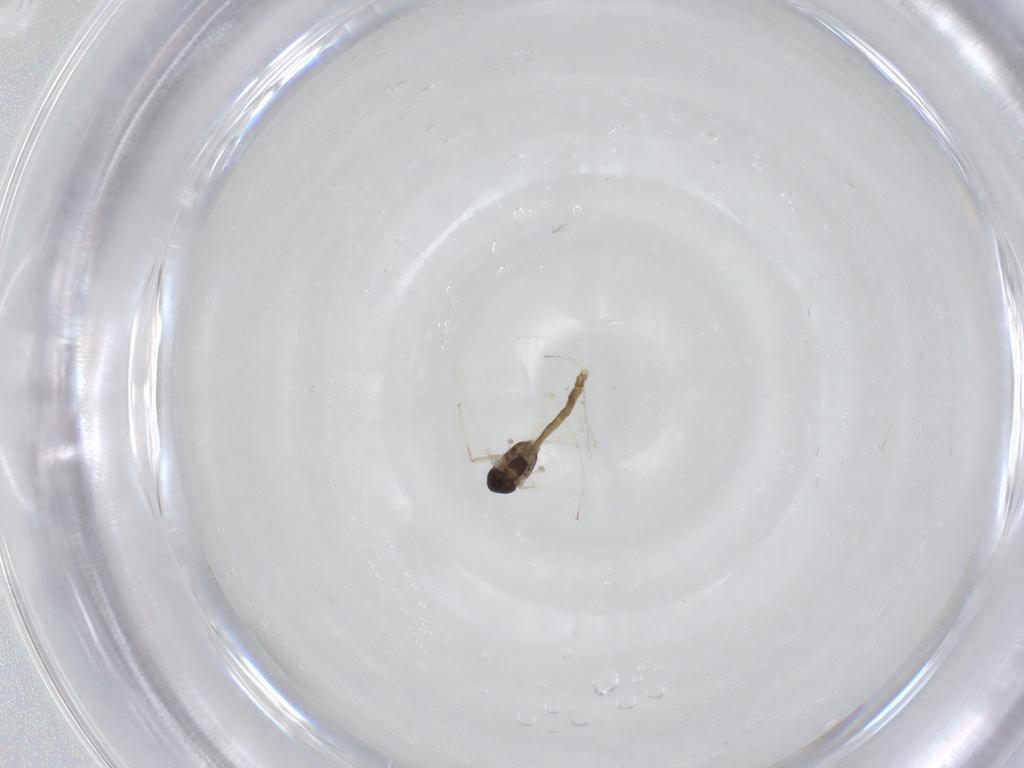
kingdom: Animalia
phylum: Arthropoda
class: Insecta
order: Diptera
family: Chironomidae
